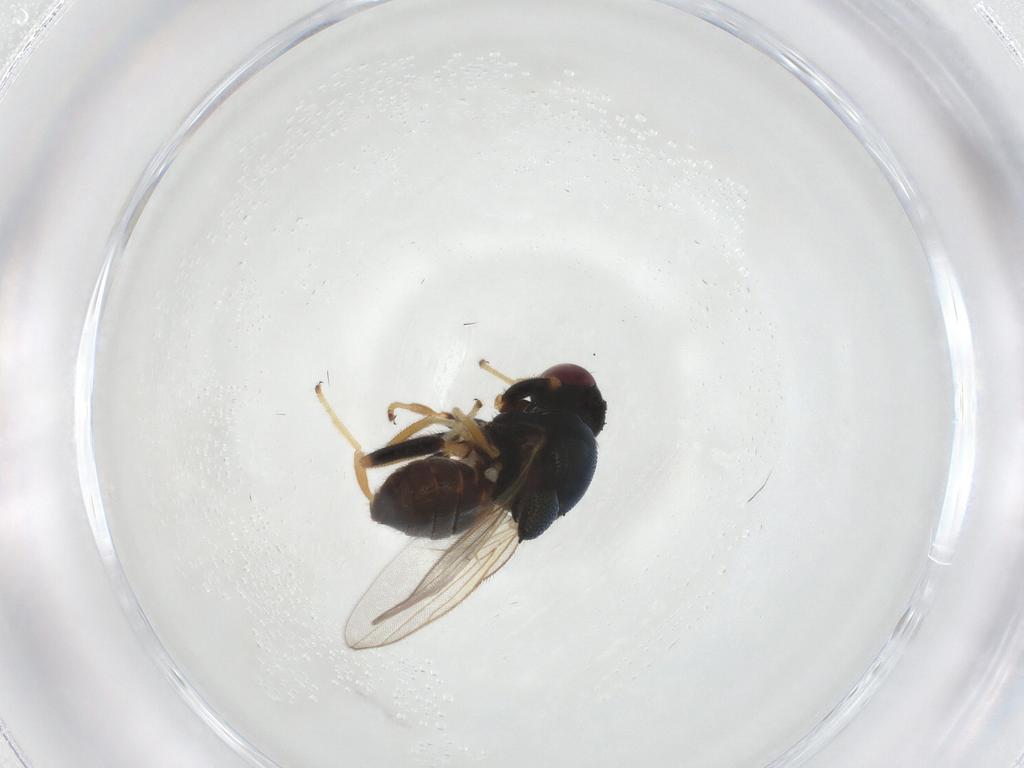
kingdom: Animalia
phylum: Arthropoda
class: Insecta
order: Diptera
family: Chloropidae
